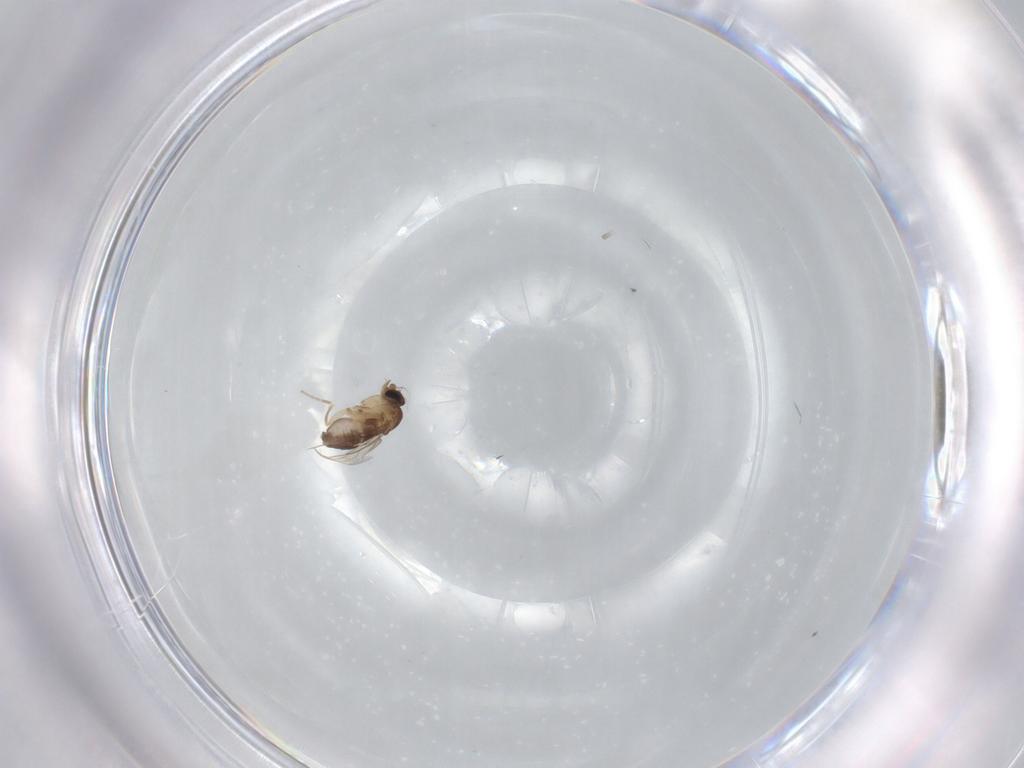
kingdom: Animalia
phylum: Arthropoda
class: Insecta
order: Diptera
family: Phoridae
